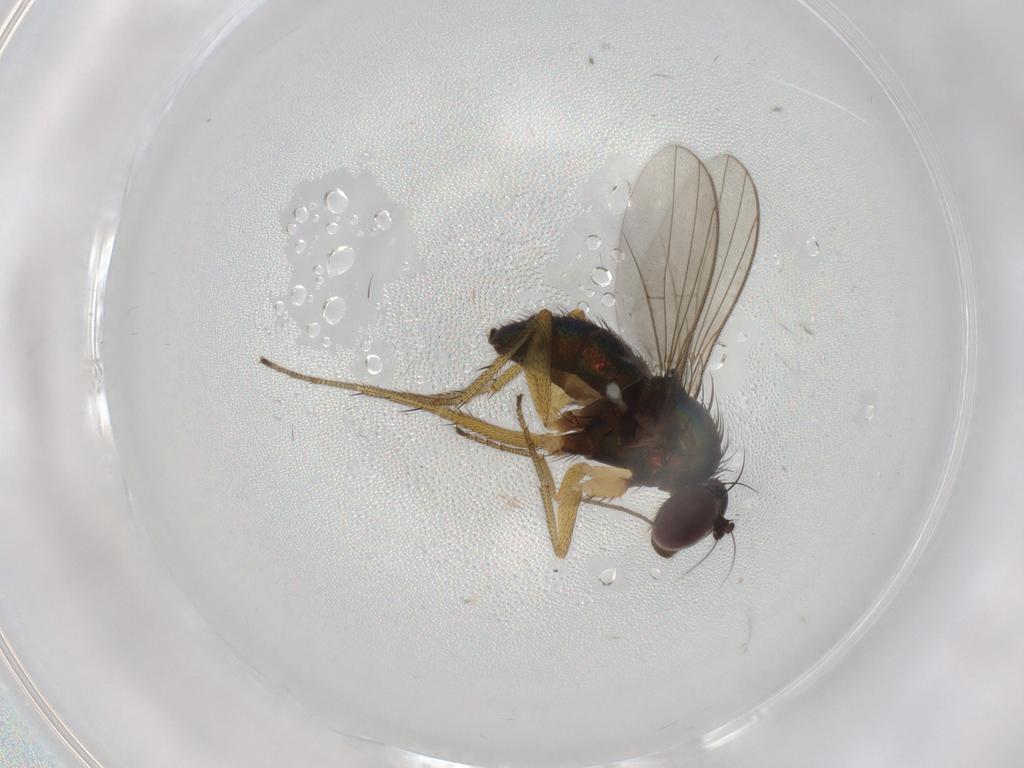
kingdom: Animalia
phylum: Arthropoda
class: Insecta
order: Diptera
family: Dolichopodidae
